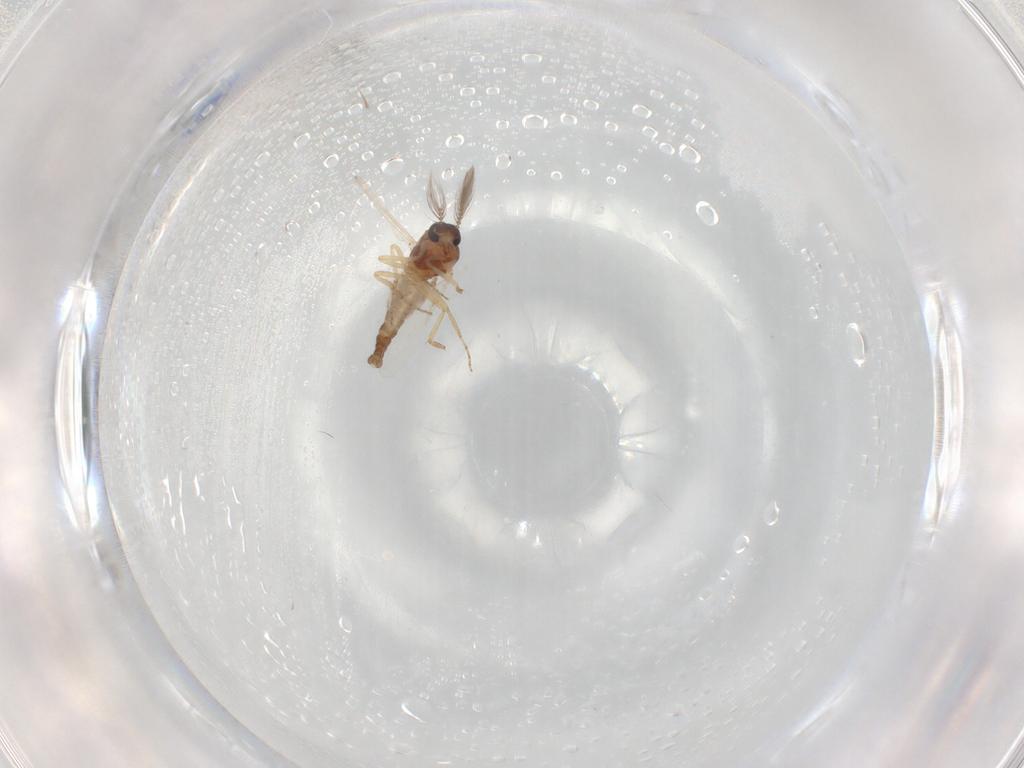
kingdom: Animalia
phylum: Arthropoda
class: Insecta
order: Diptera
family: Ceratopogonidae
